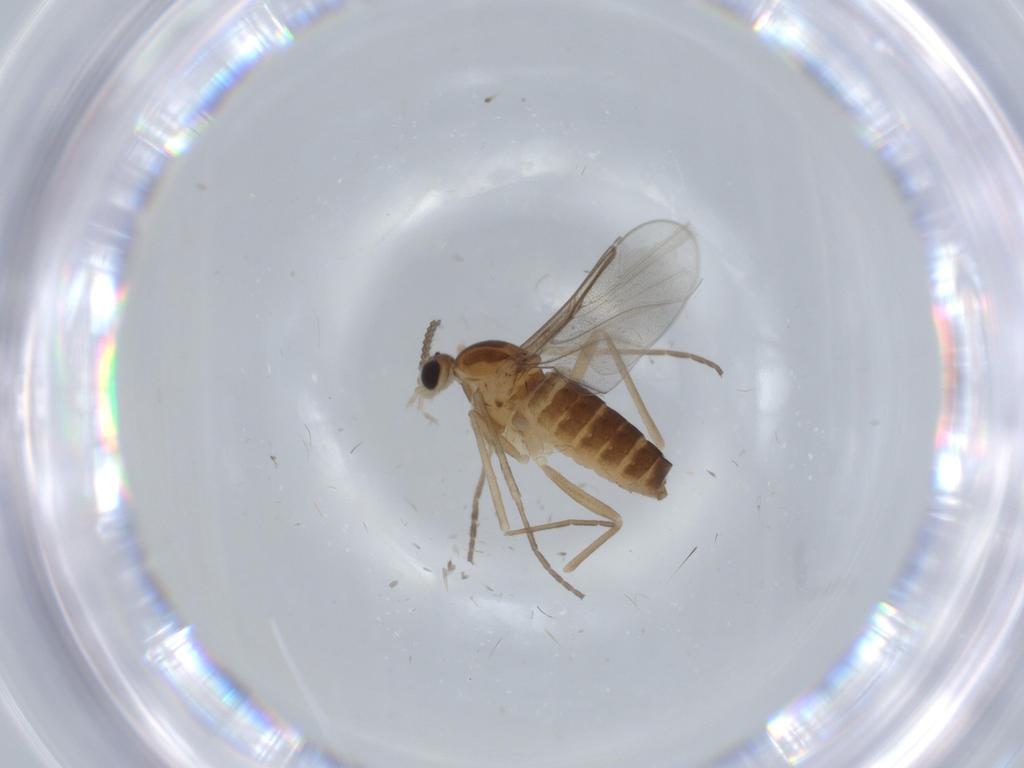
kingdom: Animalia
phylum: Arthropoda
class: Insecta
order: Diptera
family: Cecidomyiidae
